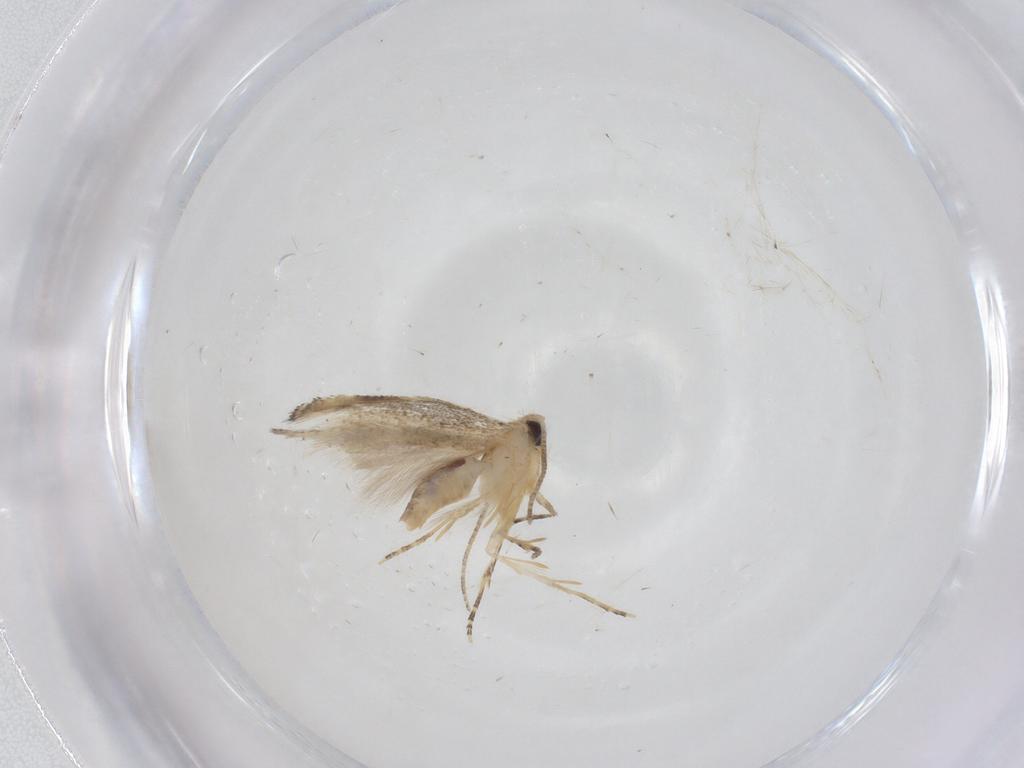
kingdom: Animalia
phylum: Arthropoda
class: Insecta
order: Lepidoptera
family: Bucculatricidae
